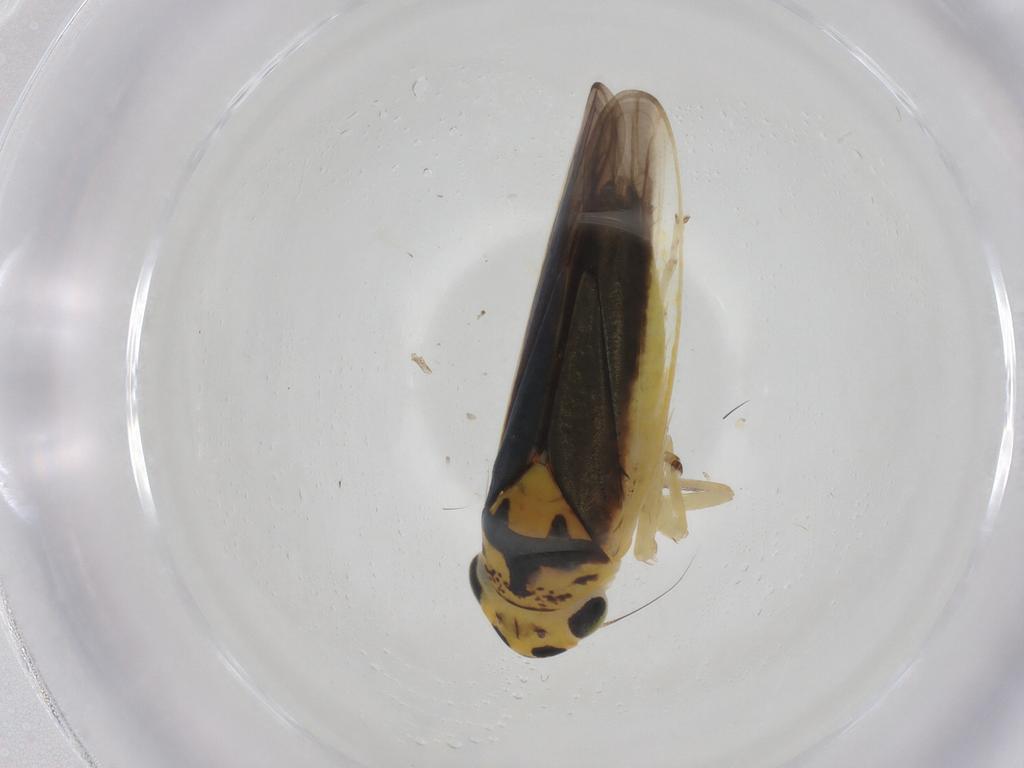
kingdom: Animalia
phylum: Arthropoda
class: Insecta
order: Hemiptera
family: Cicadellidae
